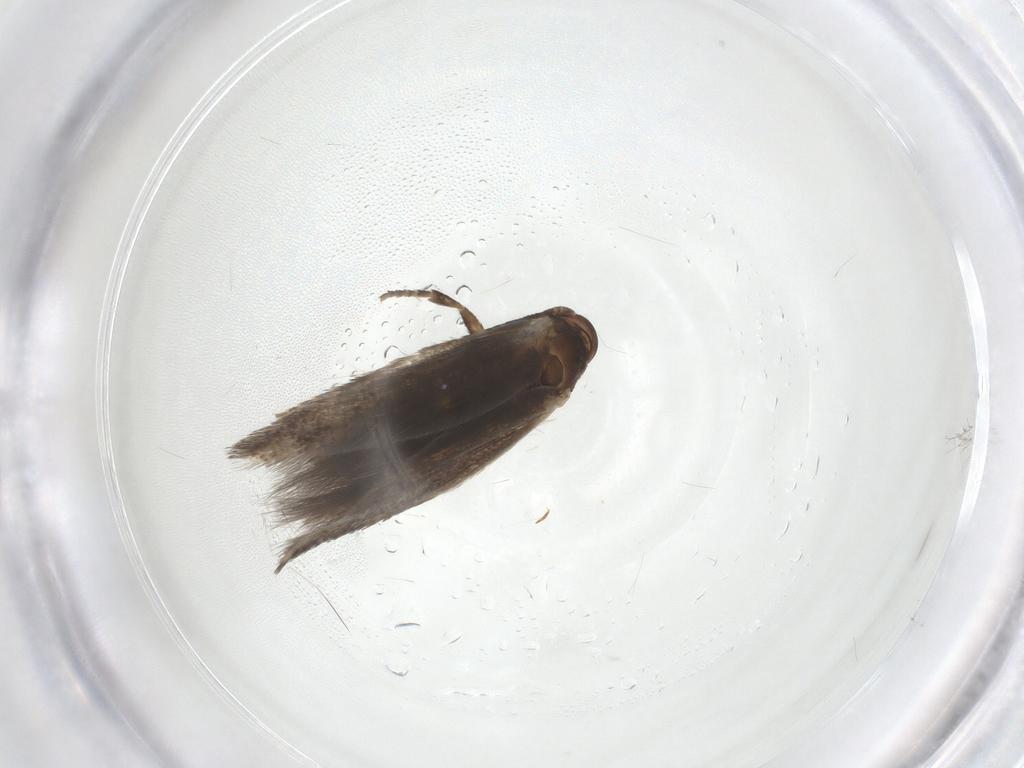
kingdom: Animalia
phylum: Arthropoda
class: Insecta
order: Lepidoptera
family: Elachistidae
